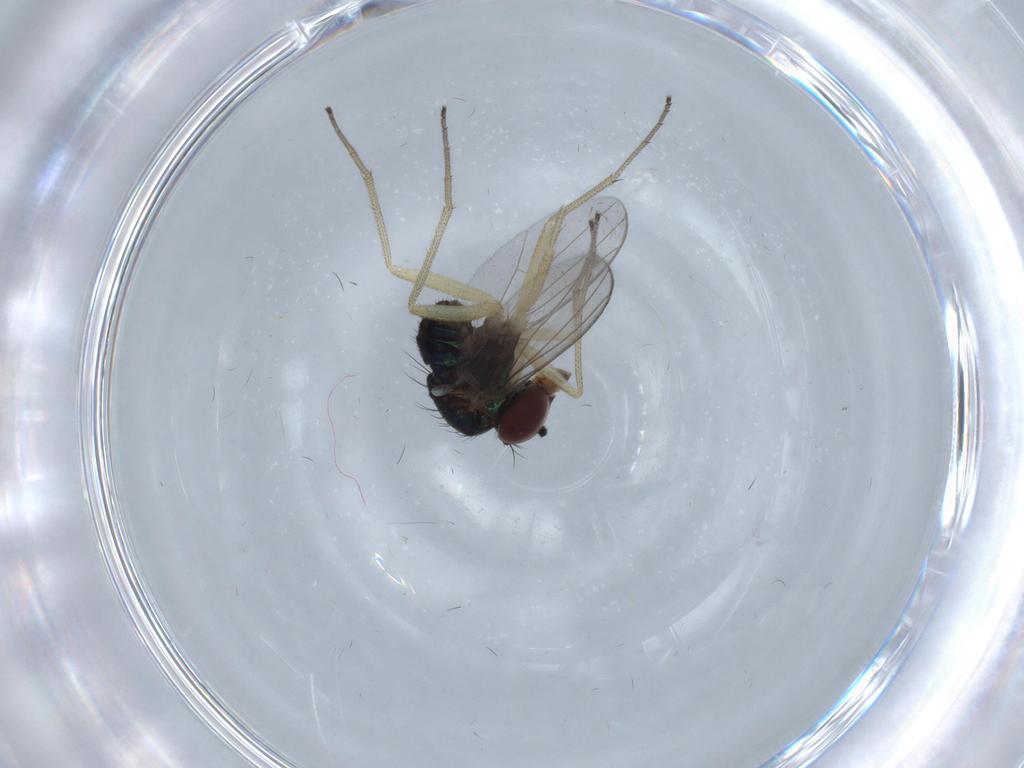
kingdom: Animalia
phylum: Arthropoda
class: Insecta
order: Diptera
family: Dolichopodidae
